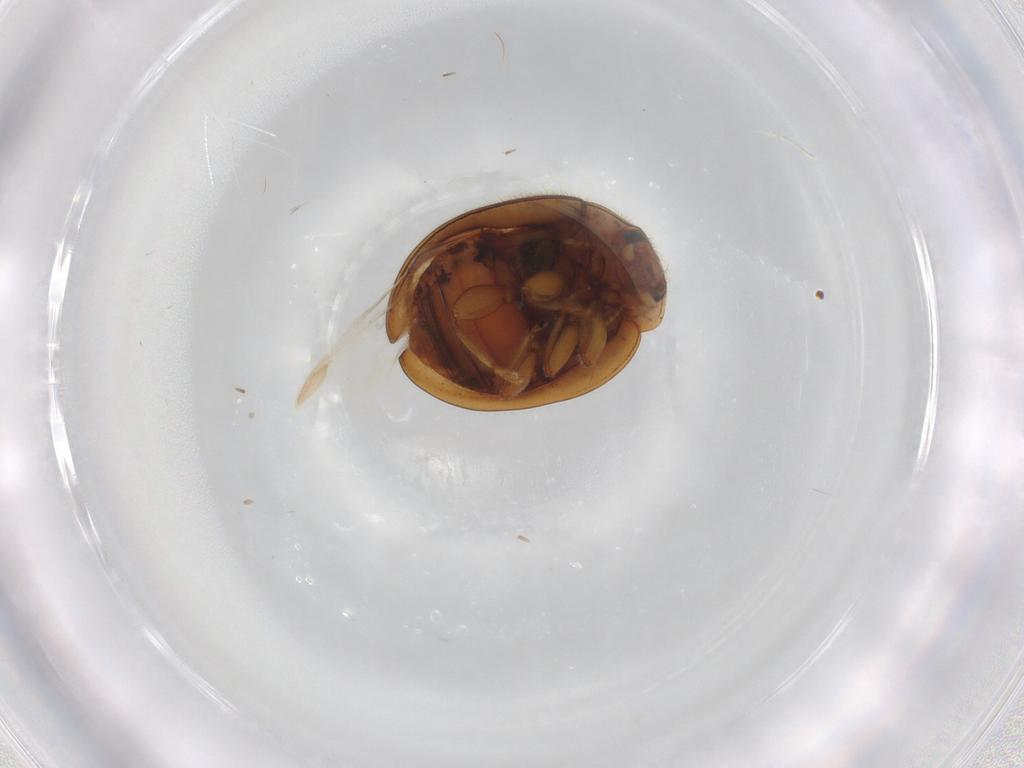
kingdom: Animalia
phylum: Arthropoda
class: Insecta
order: Coleoptera
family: Coccinellidae
